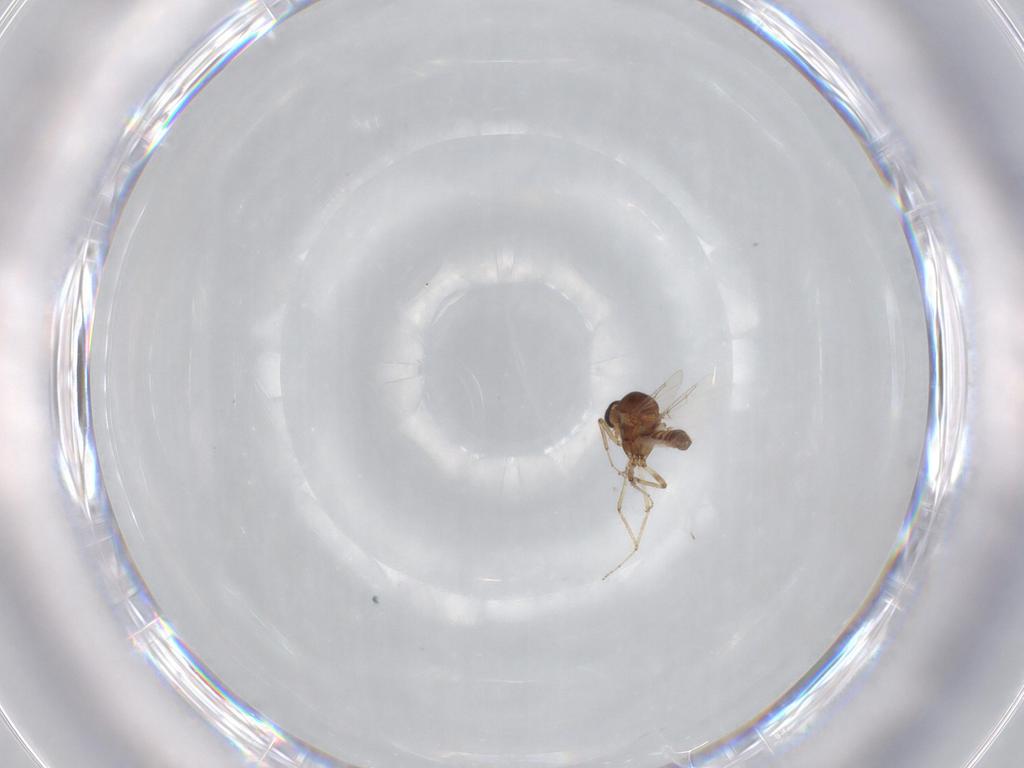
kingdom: Animalia
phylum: Arthropoda
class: Insecta
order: Diptera
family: Ceratopogonidae
